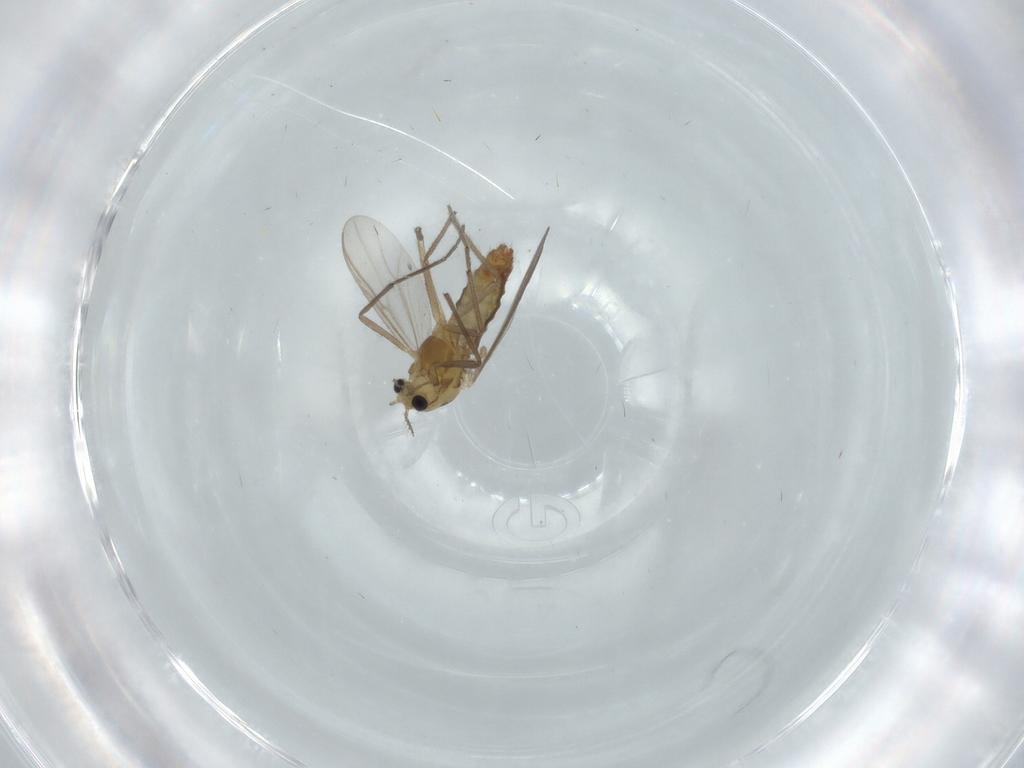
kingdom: Animalia
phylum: Arthropoda
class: Insecta
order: Diptera
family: Chironomidae
